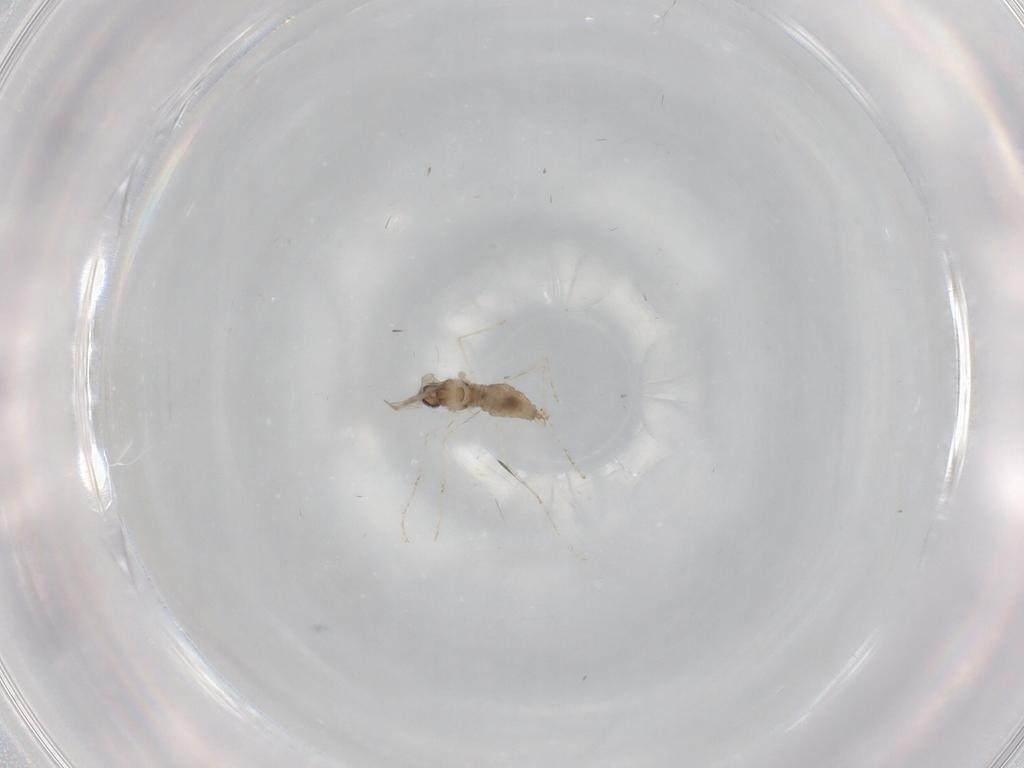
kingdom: Animalia
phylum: Arthropoda
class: Insecta
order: Diptera
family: Cecidomyiidae
